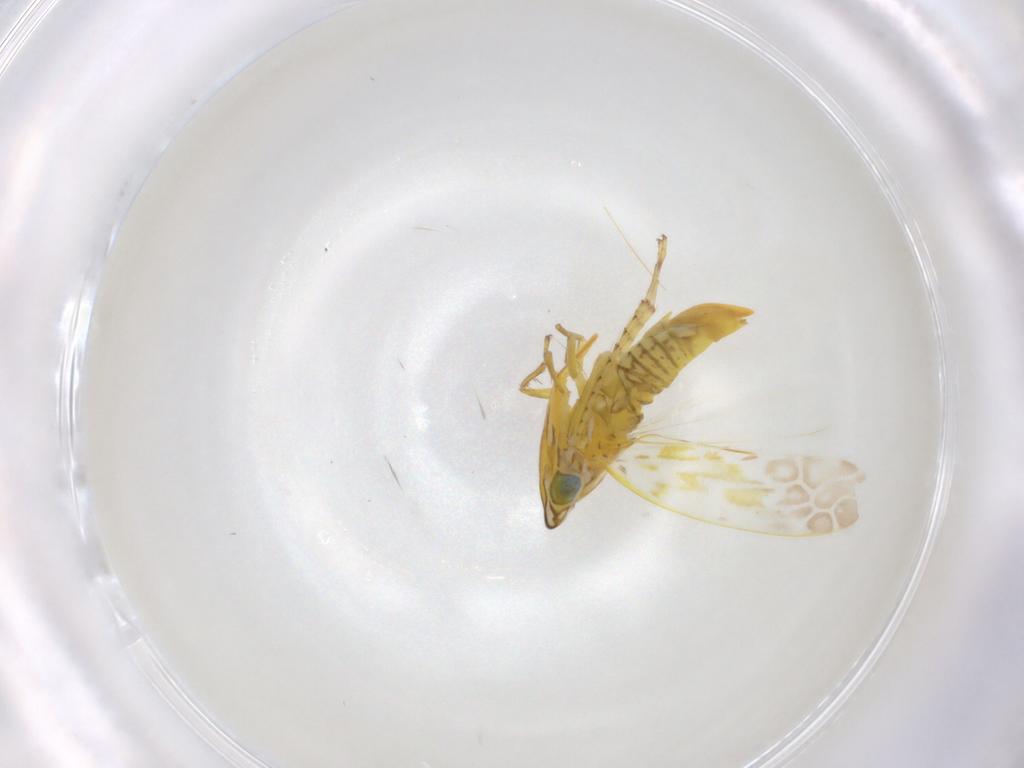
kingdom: Animalia
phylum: Arthropoda
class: Insecta
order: Hemiptera
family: Cicadellidae
